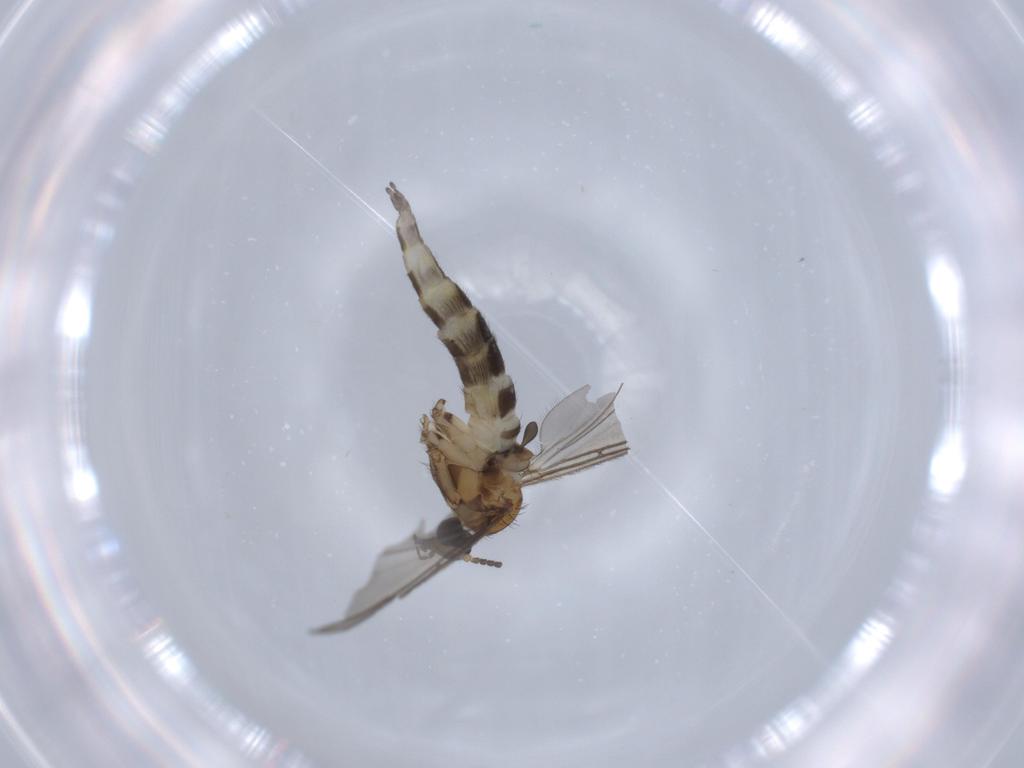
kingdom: Animalia
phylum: Arthropoda
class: Insecta
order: Diptera
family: Sciaridae
